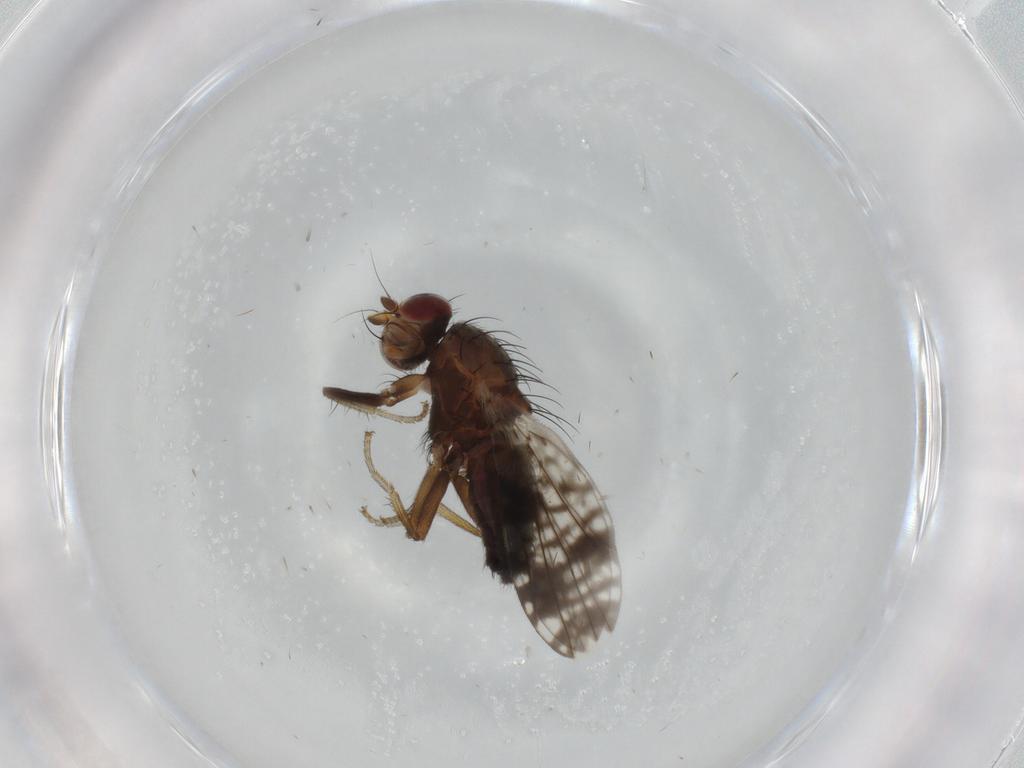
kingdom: Animalia
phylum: Arthropoda
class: Insecta
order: Diptera
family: Tephritidae
